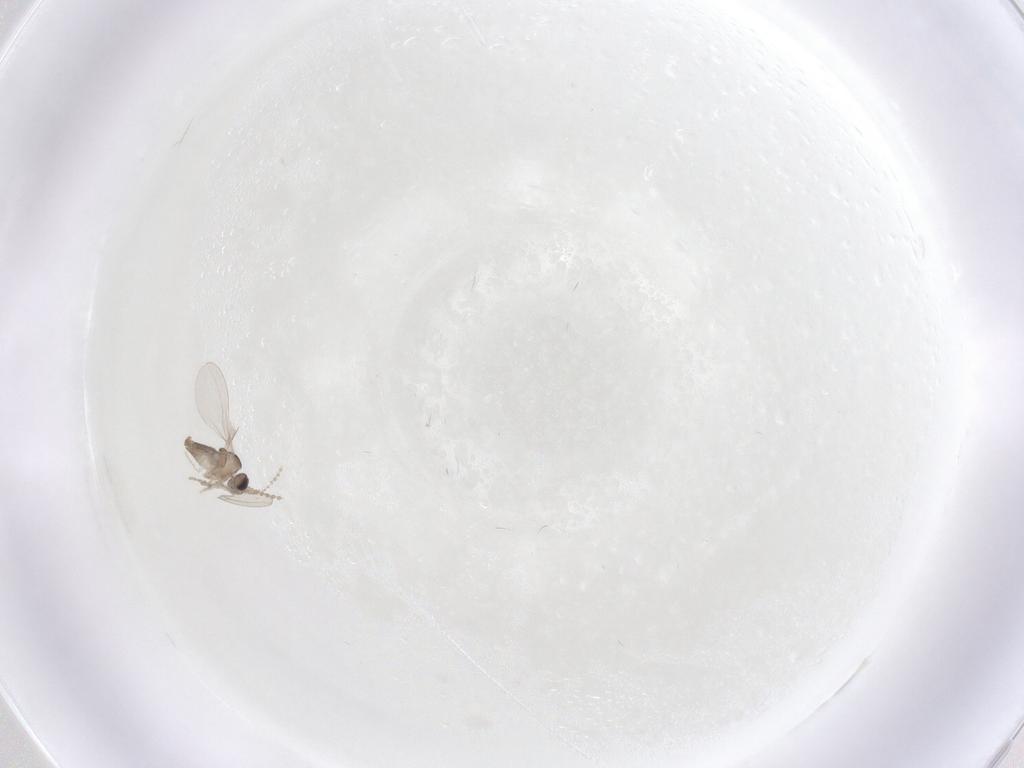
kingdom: Animalia
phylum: Arthropoda
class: Insecta
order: Diptera
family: Cecidomyiidae
